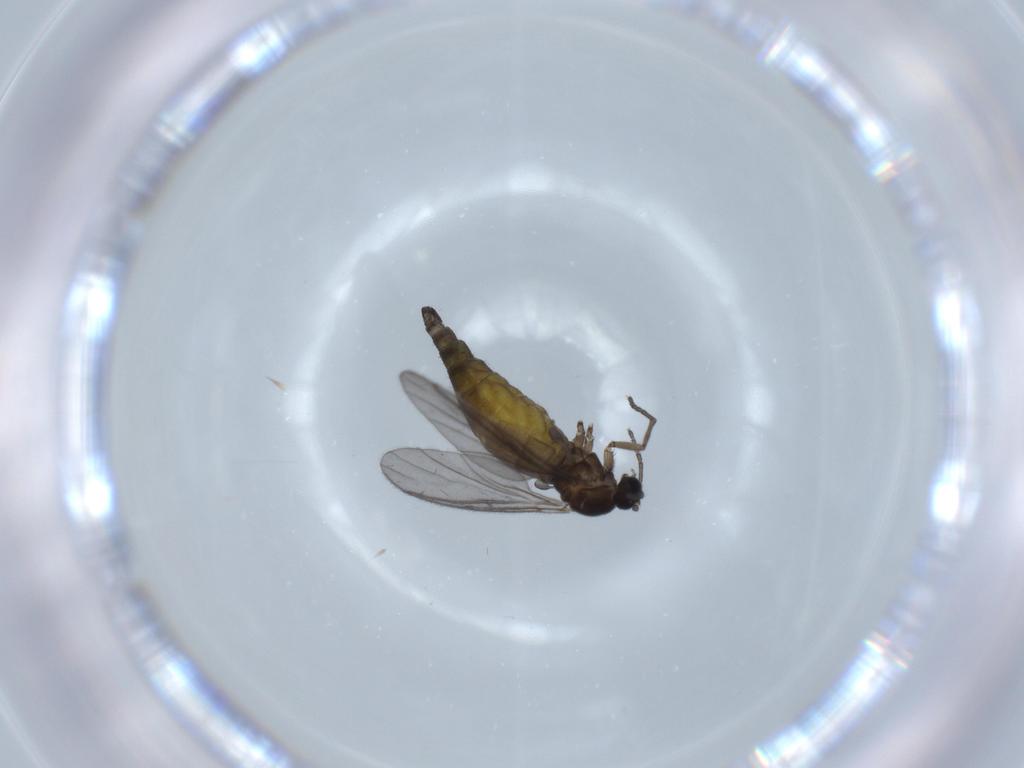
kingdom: Animalia
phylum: Arthropoda
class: Insecta
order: Diptera
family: Sciaridae
